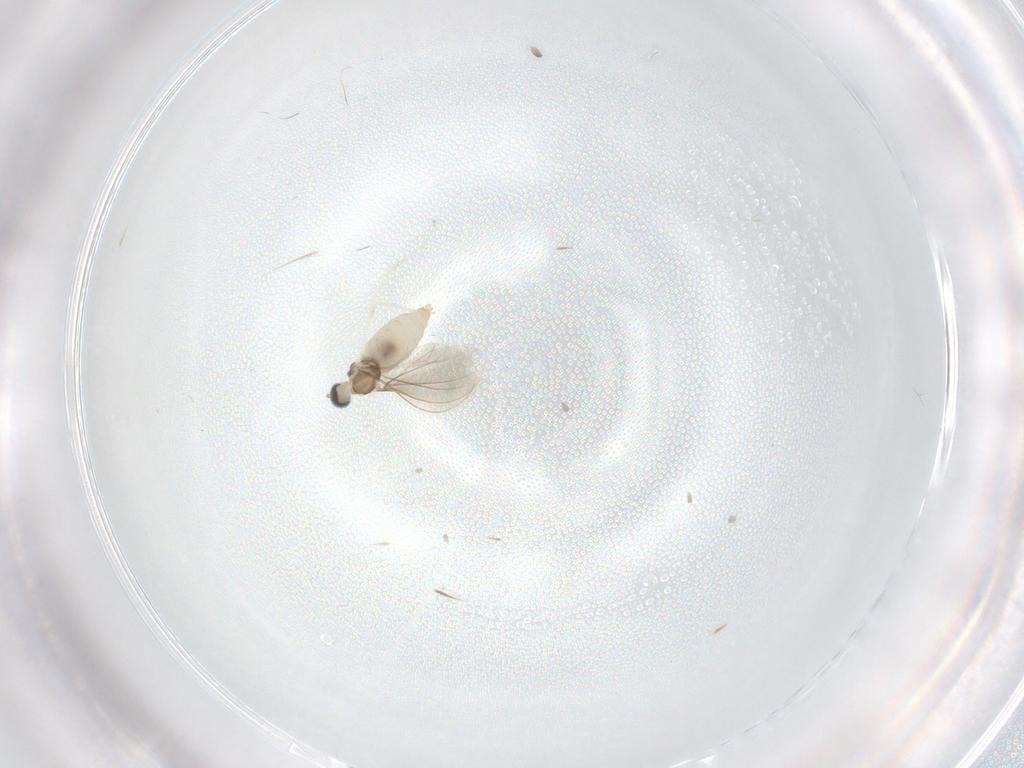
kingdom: Animalia
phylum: Arthropoda
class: Insecta
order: Diptera
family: Cecidomyiidae
